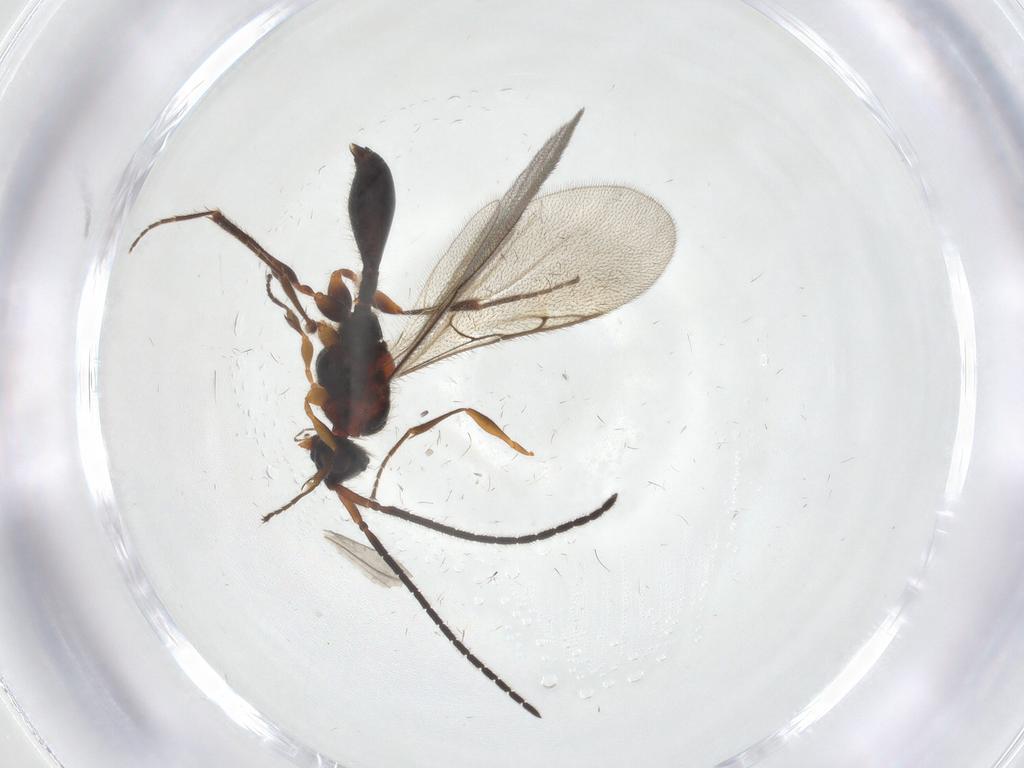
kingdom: Animalia
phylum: Arthropoda
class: Insecta
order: Hymenoptera
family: Diapriidae
